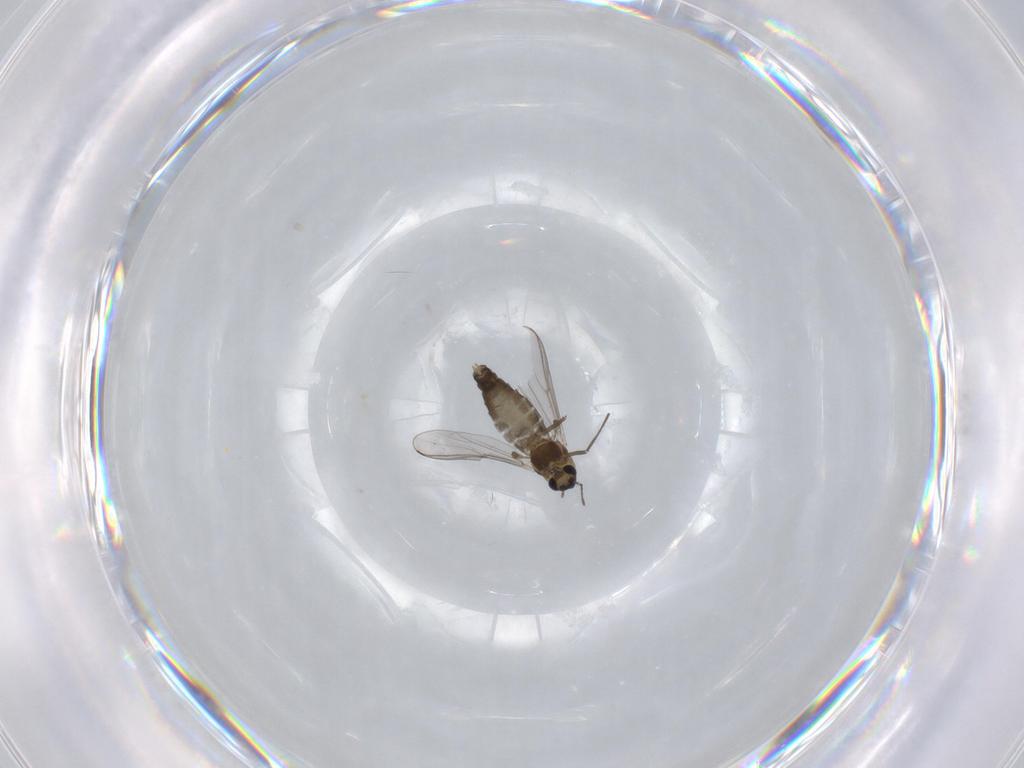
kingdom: Animalia
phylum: Arthropoda
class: Insecta
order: Diptera
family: Chironomidae
